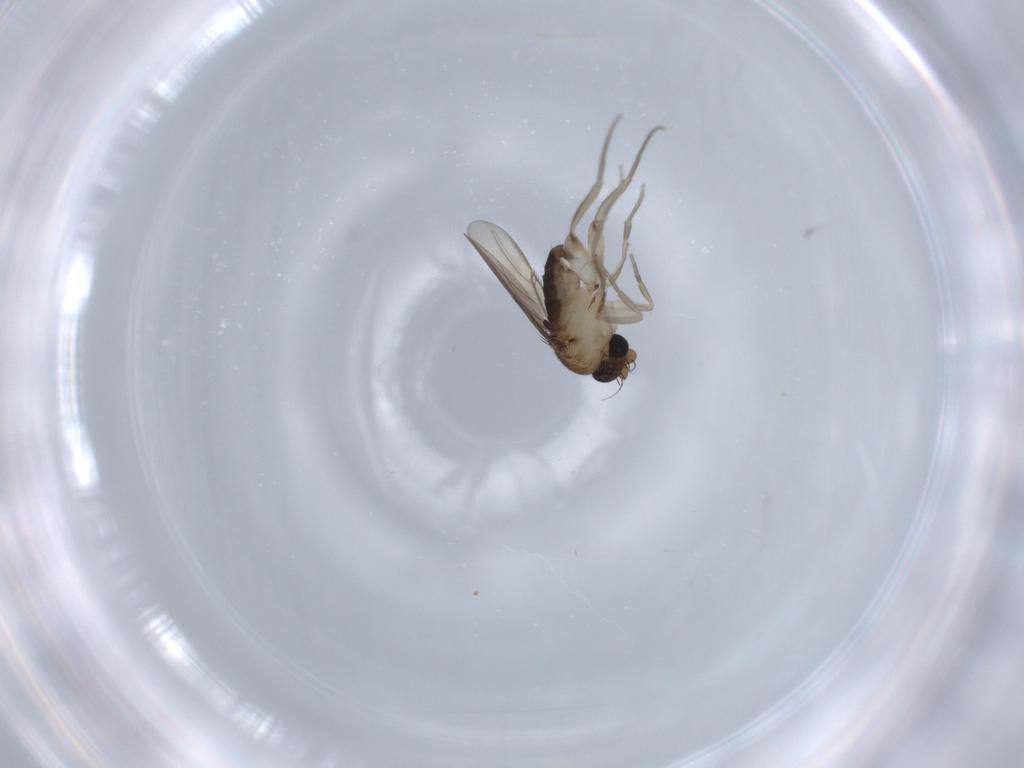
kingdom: Animalia
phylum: Arthropoda
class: Insecta
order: Diptera
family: Phoridae
